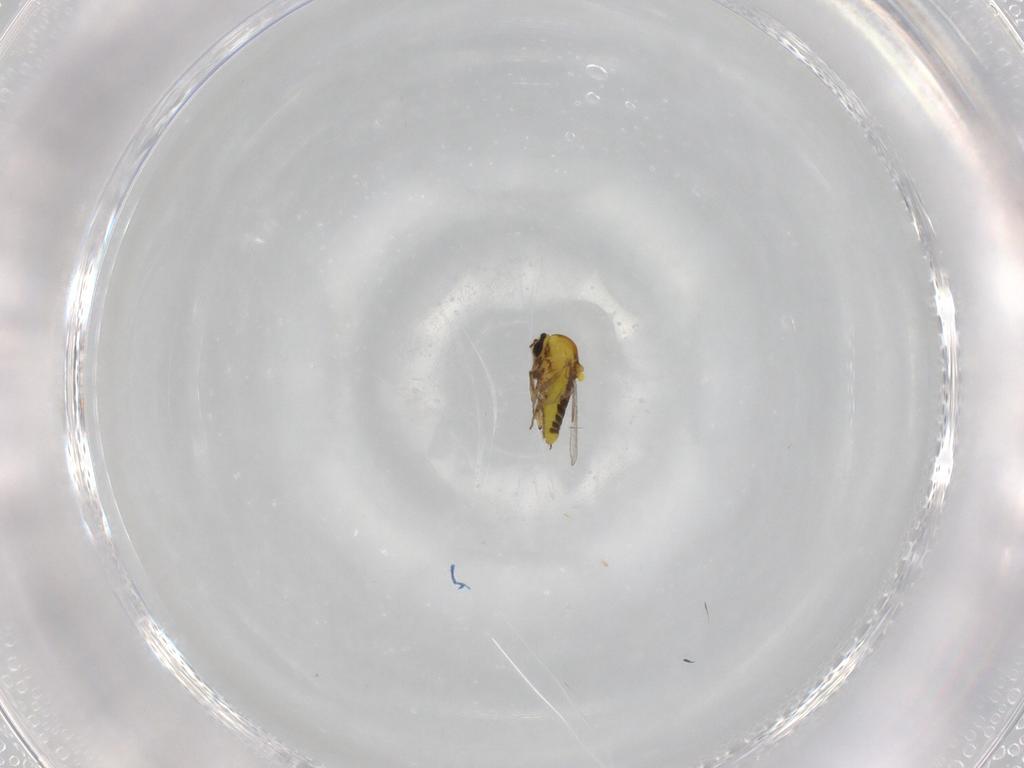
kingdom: Animalia
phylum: Arthropoda
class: Insecta
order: Diptera
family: Ceratopogonidae
